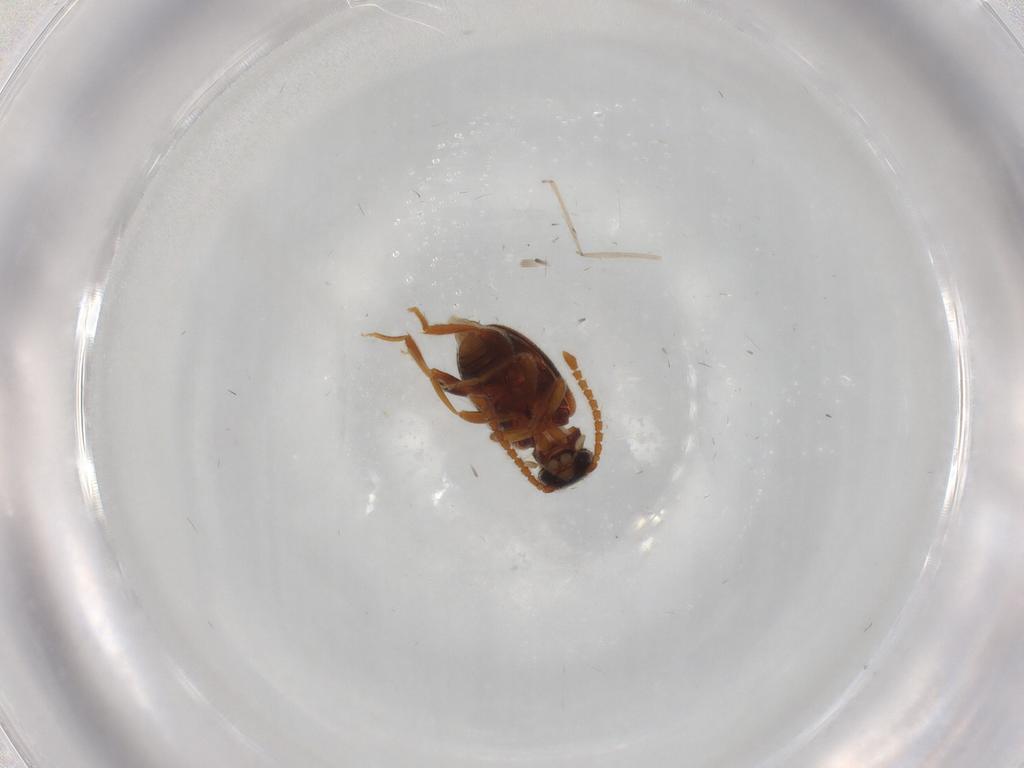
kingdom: Animalia
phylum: Arthropoda
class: Insecta
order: Coleoptera
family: Aderidae
